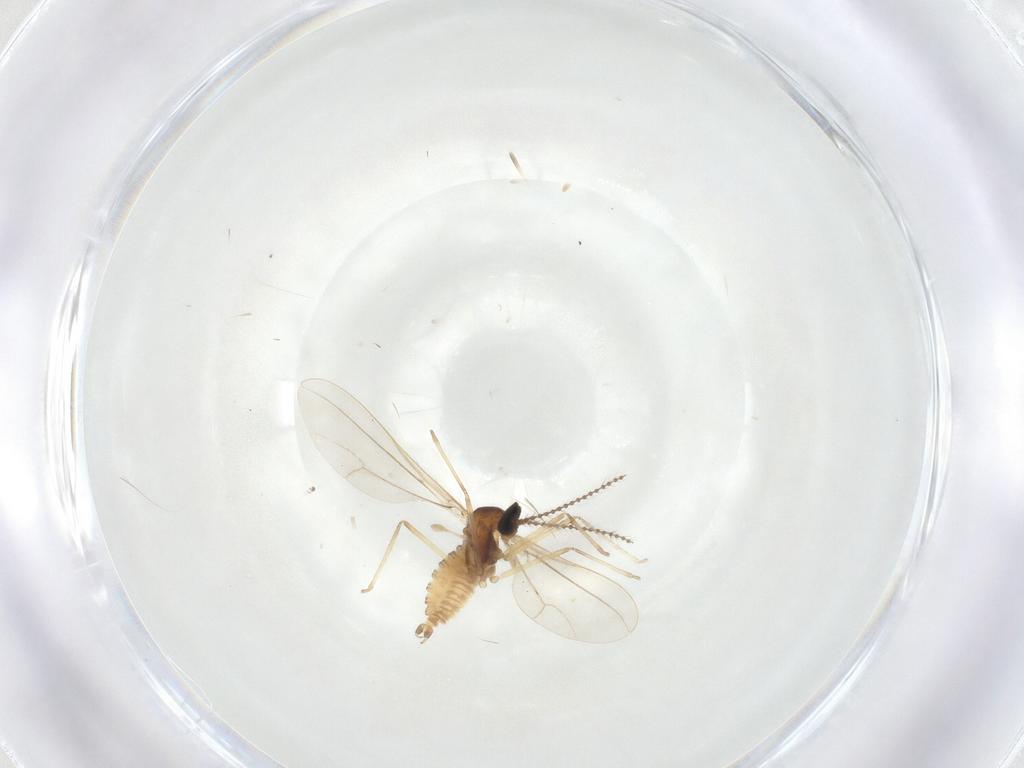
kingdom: Animalia
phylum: Arthropoda
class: Insecta
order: Diptera
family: Cecidomyiidae
